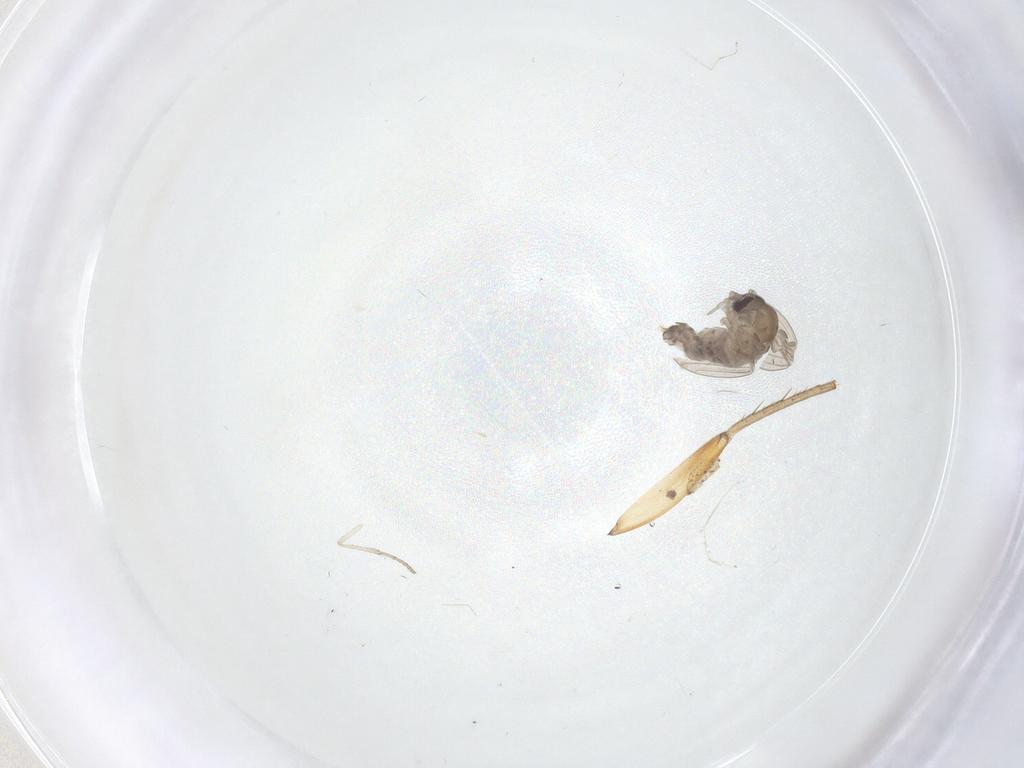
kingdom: Animalia
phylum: Arthropoda
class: Insecta
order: Diptera
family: Psychodidae
